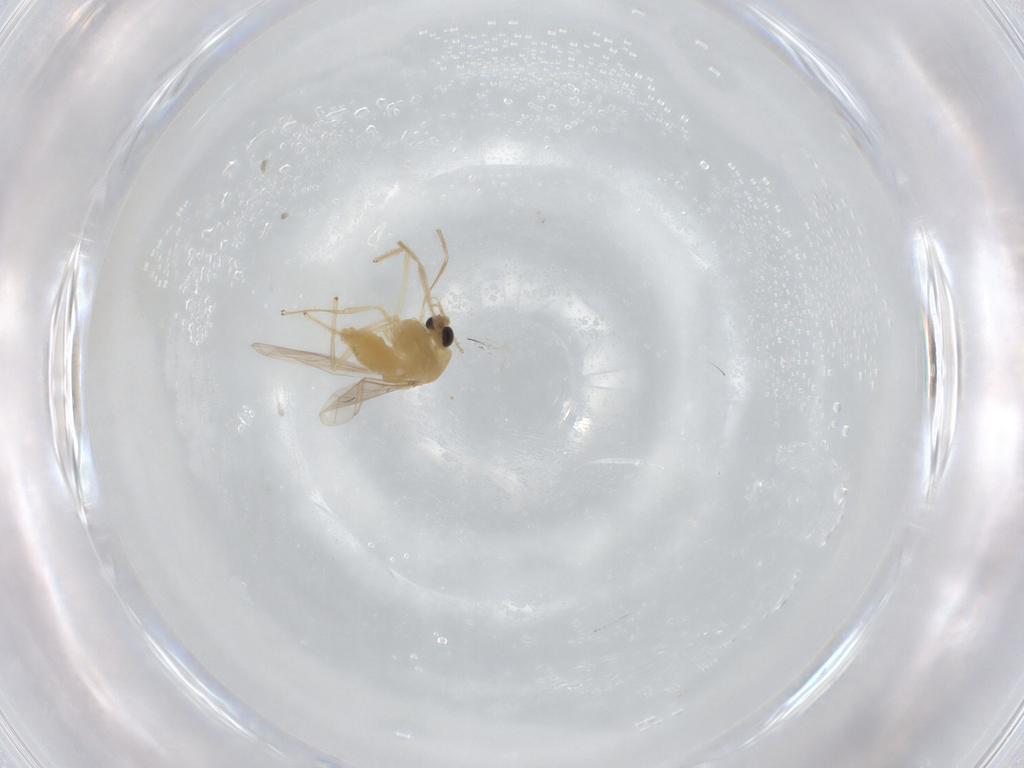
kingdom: Animalia
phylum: Arthropoda
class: Insecta
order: Diptera
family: Chironomidae
